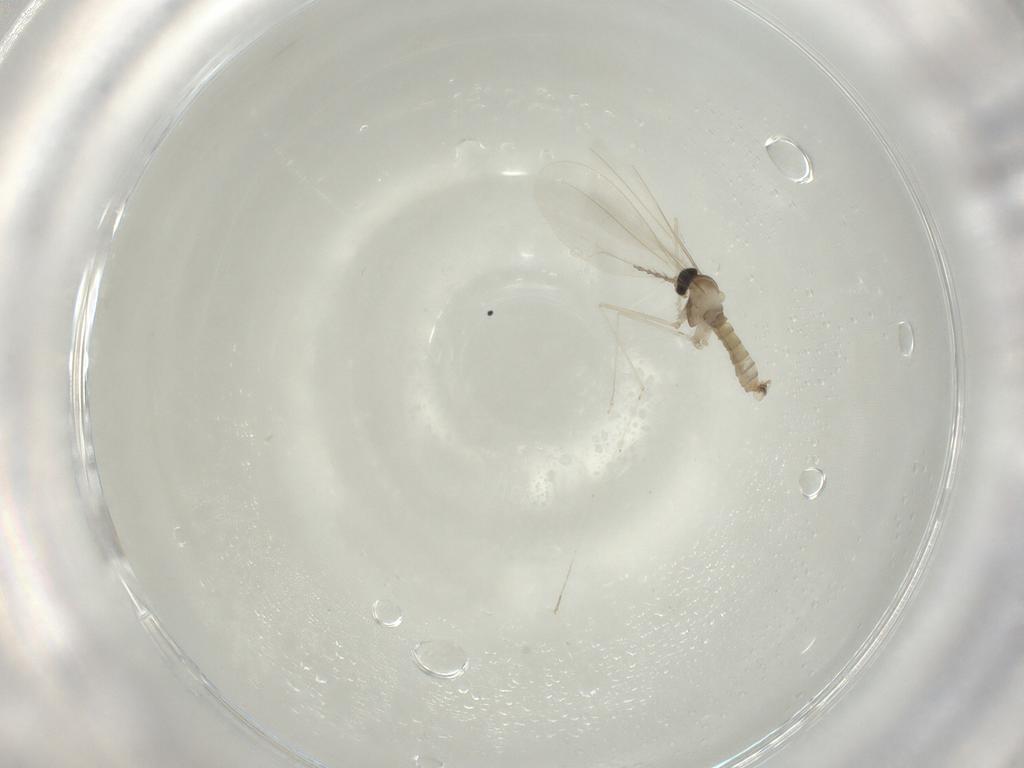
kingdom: Animalia
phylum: Arthropoda
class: Insecta
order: Diptera
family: Cecidomyiidae
